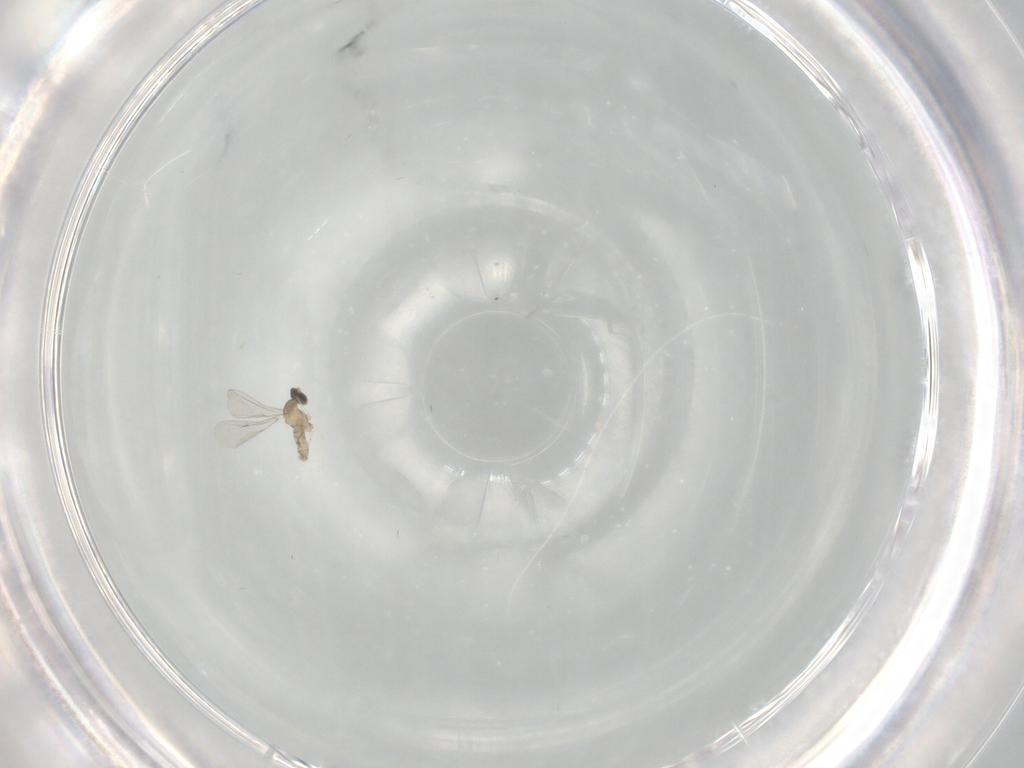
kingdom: Animalia
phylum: Arthropoda
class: Insecta
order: Diptera
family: Cecidomyiidae
